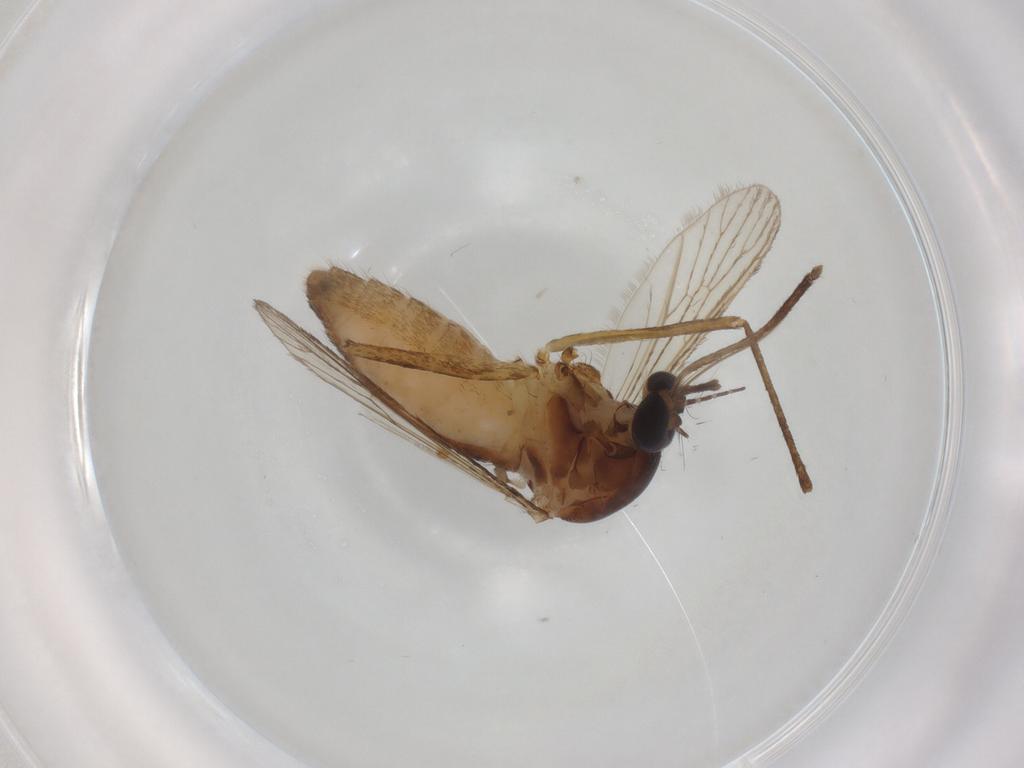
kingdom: Animalia
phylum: Arthropoda
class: Insecta
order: Diptera
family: Culicidae
